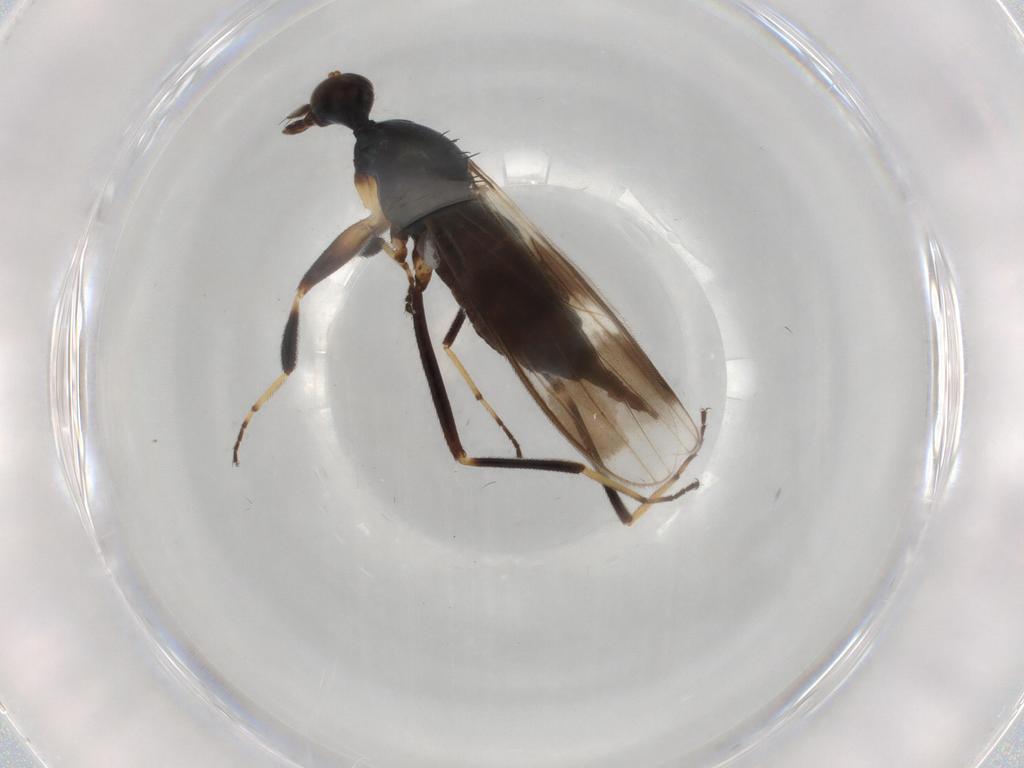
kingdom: Animalia
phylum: Arthropoda
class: Insecta
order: Diptera
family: Hybotidae
